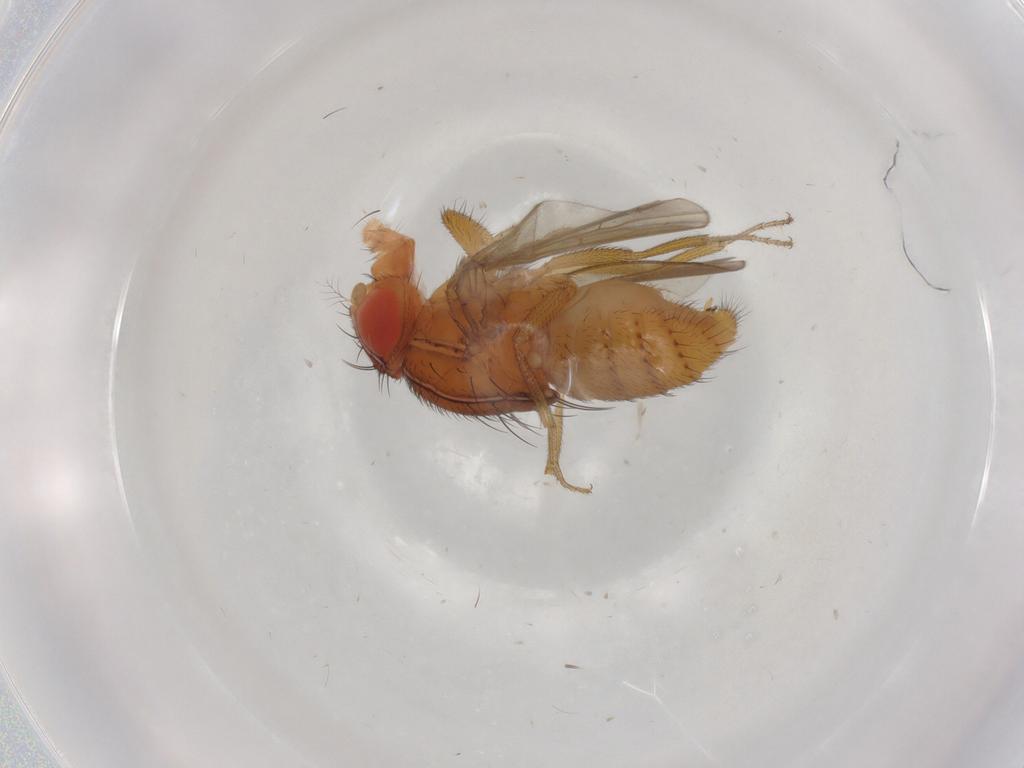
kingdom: Animalia
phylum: Arthropoda
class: Insecta
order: Diptera
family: Drosophilidae
